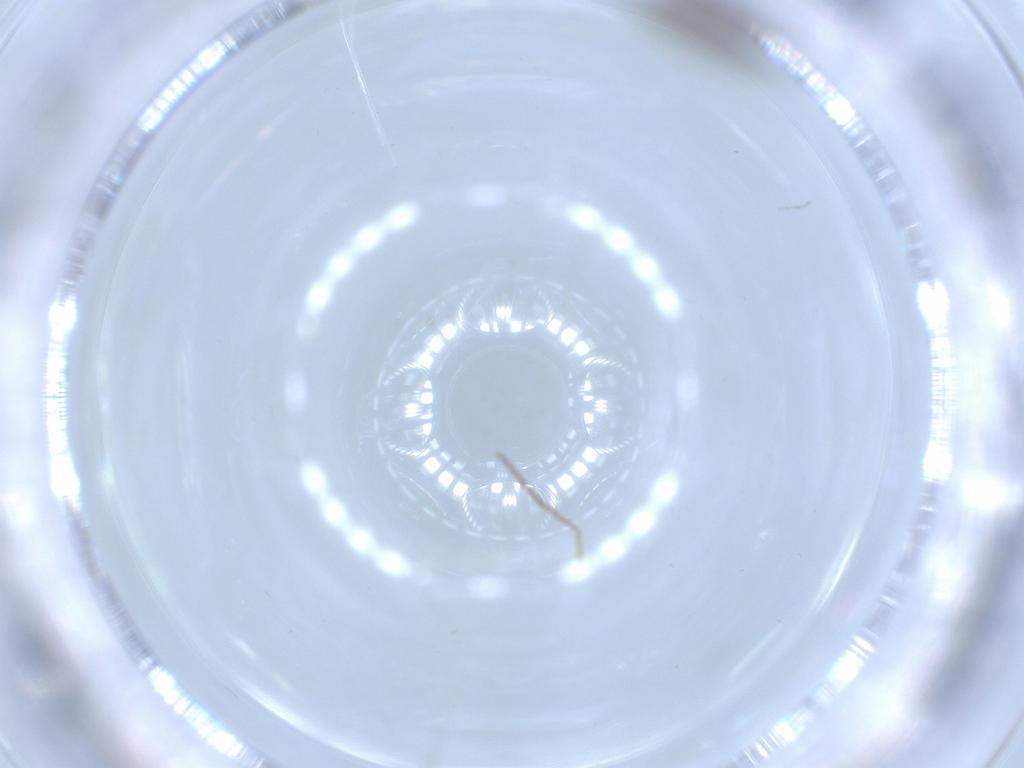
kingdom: Animalia
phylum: Arthropoda
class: Insecta
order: Diptera
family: Psychodidae
